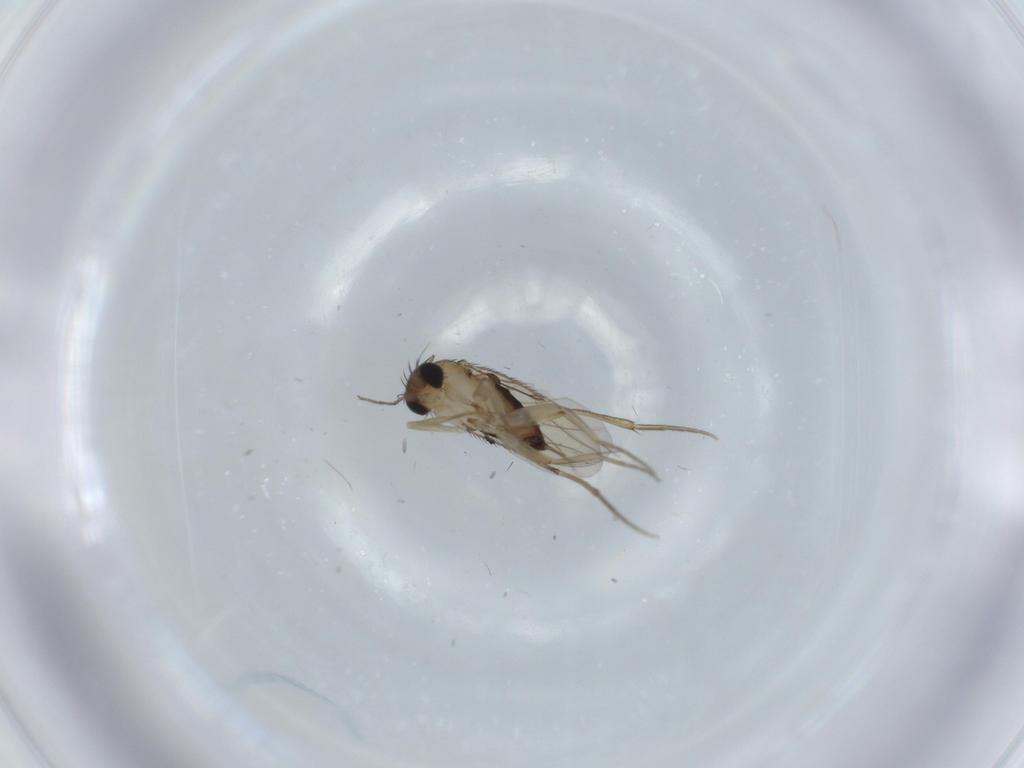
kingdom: Animalia
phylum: Arthropoda
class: Insecta
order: Diptera
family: Phoridae
